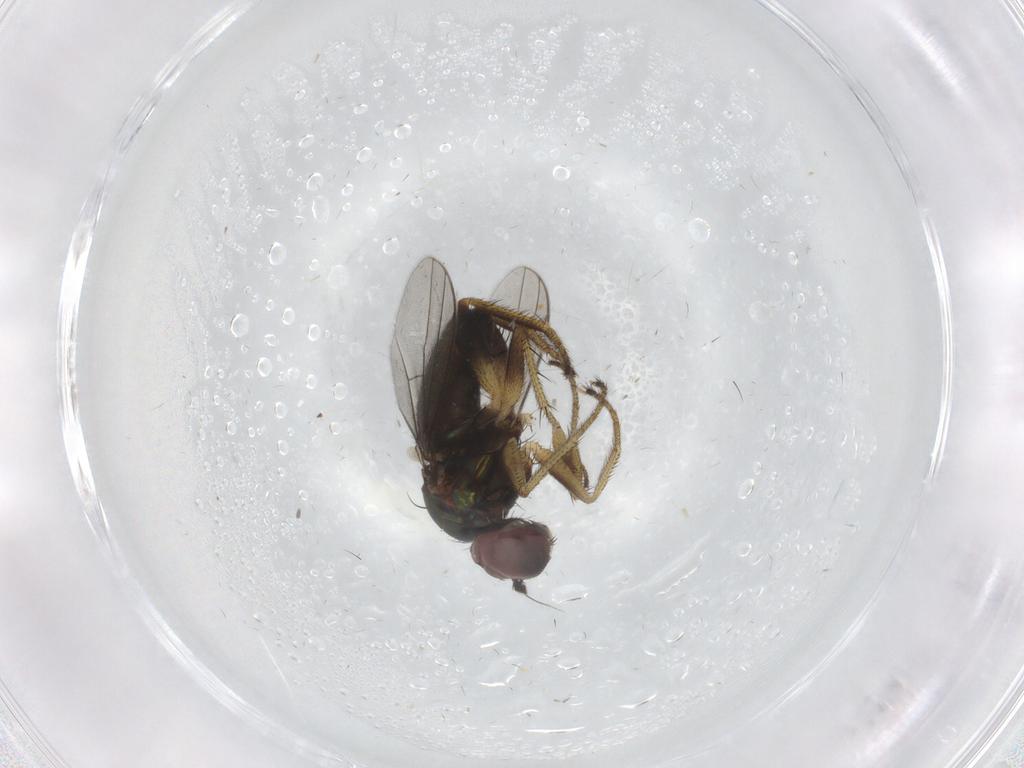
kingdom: Animalia
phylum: Arthropoda
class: Insecta
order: Diptera
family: Dolichopodidae
